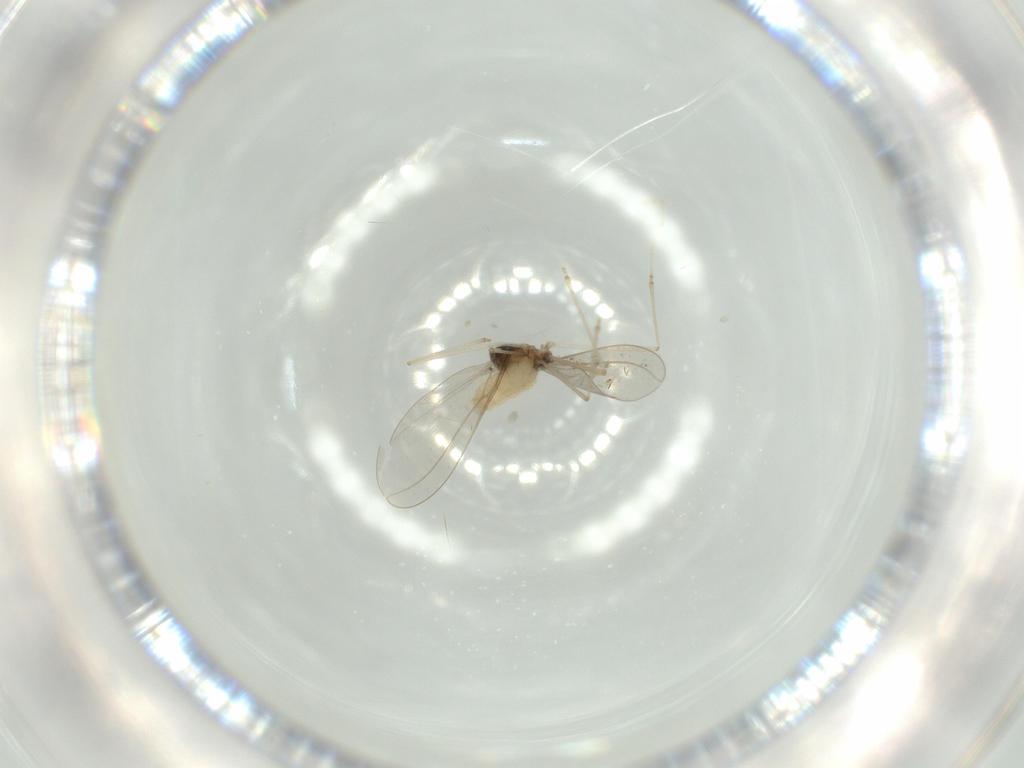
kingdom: Animalia
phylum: Arthropoda
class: Insecta
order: Diptera
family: Cecidomyiidae
